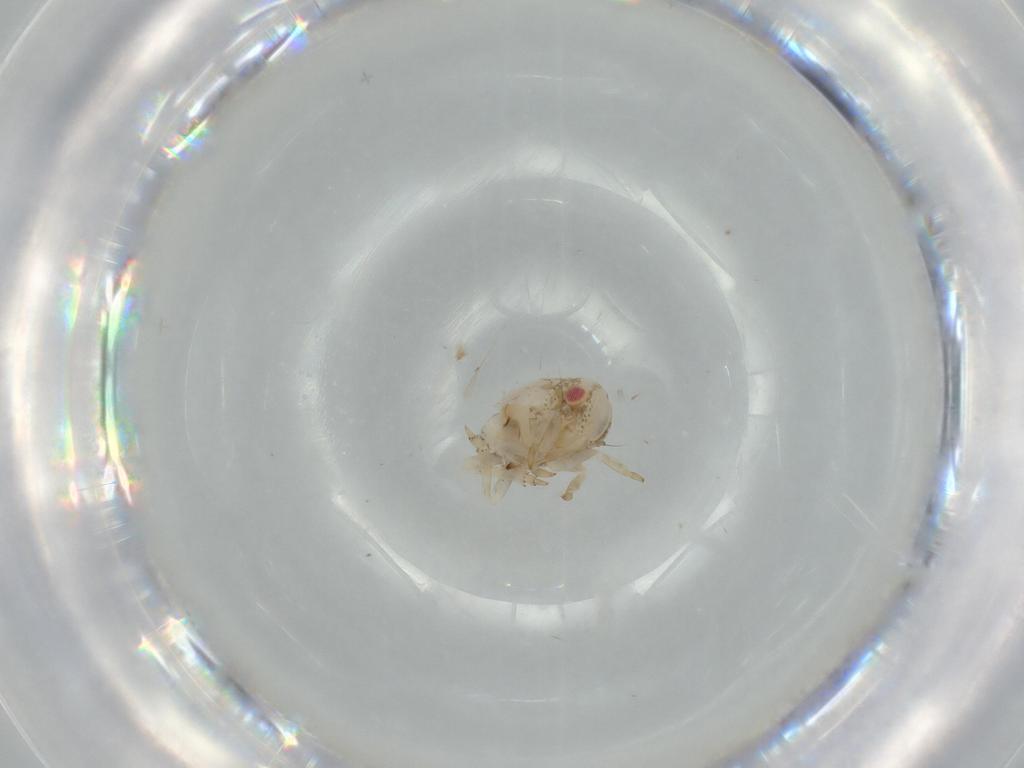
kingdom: Animalia
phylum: Arthropoda
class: Insecta
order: Hemiptera
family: Acanaloniidae
